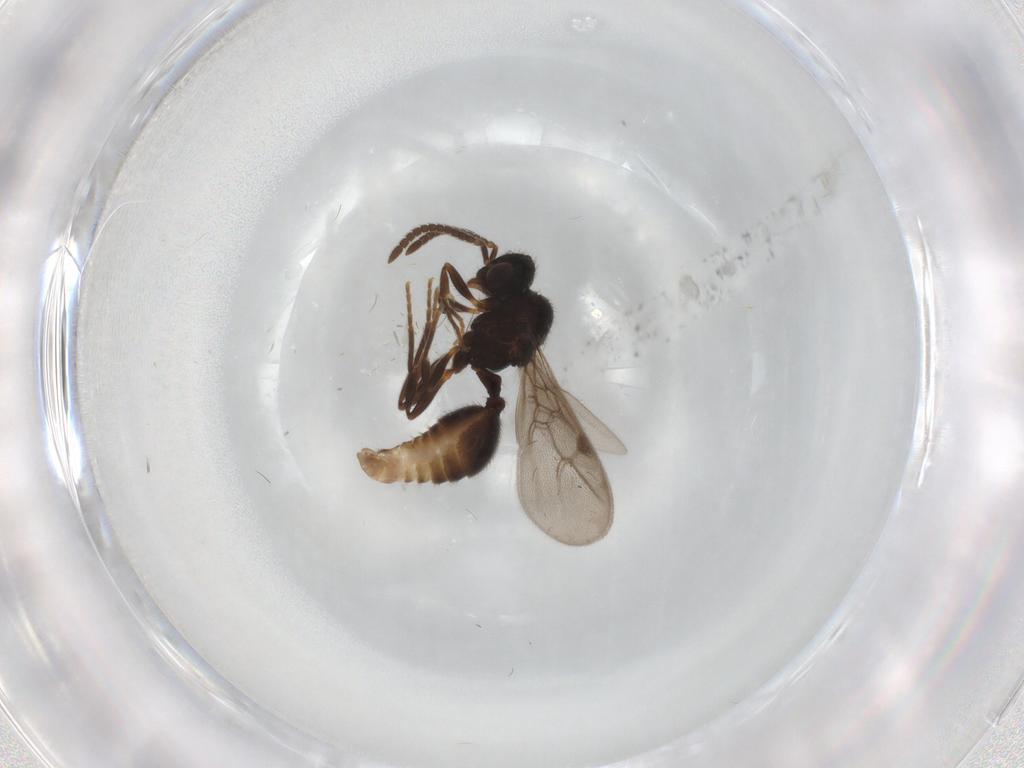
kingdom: Animalia
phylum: Arthropoda
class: Insecta
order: Hymenoptera
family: Formicidae
